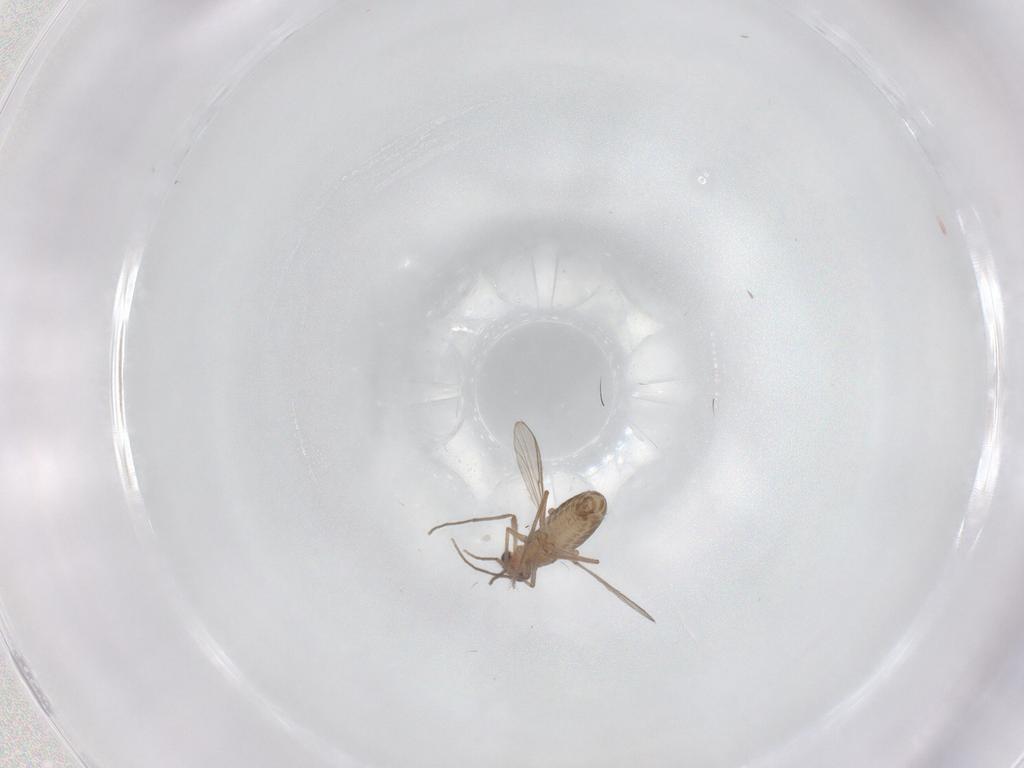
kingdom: Animalia
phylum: Arthropoda
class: Insecta
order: Diptera
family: Chironomidae
